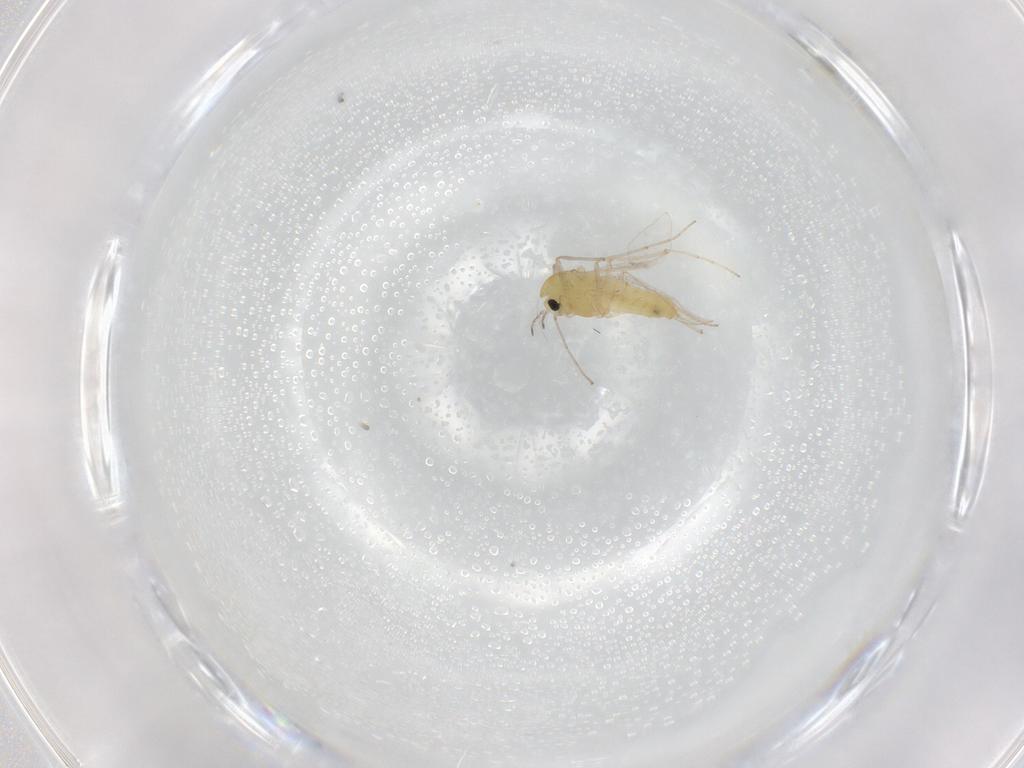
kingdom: Animalia
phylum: Arthropoda
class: Insecta
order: Diptera
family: Chironomidae
